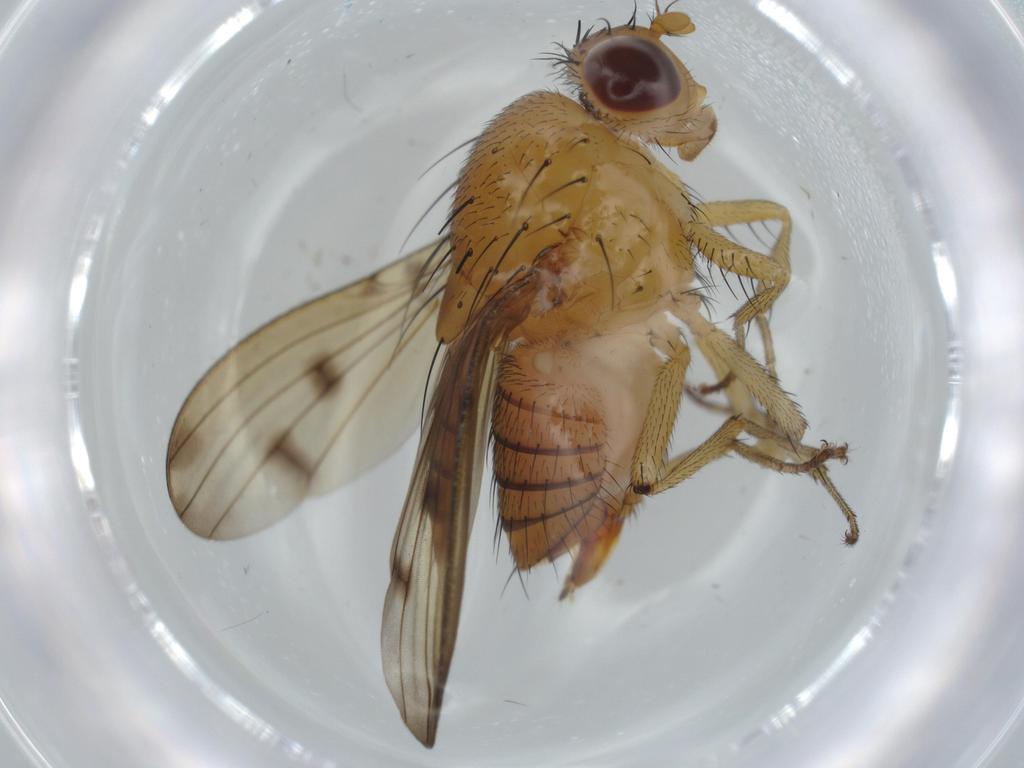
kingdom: Animalia
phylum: Arthropoda
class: Insecta
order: Diptera
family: Psychodidae
